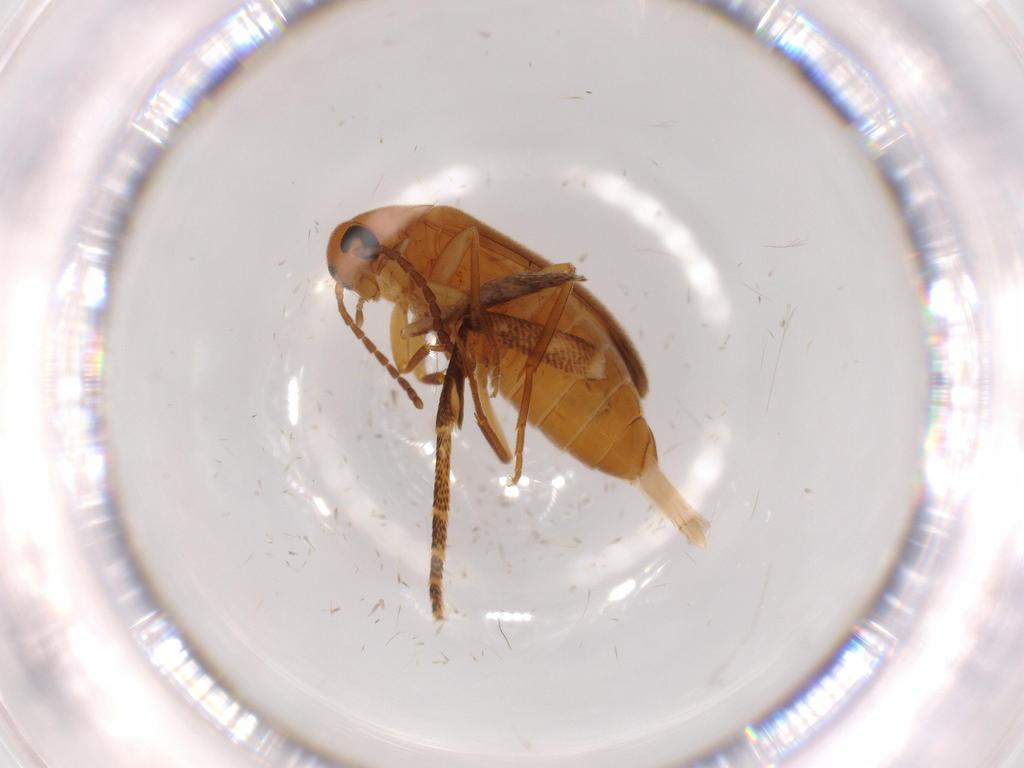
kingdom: Animalia
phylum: Arthropoda
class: Insecta
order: Coleoptera
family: Scraptiidae
